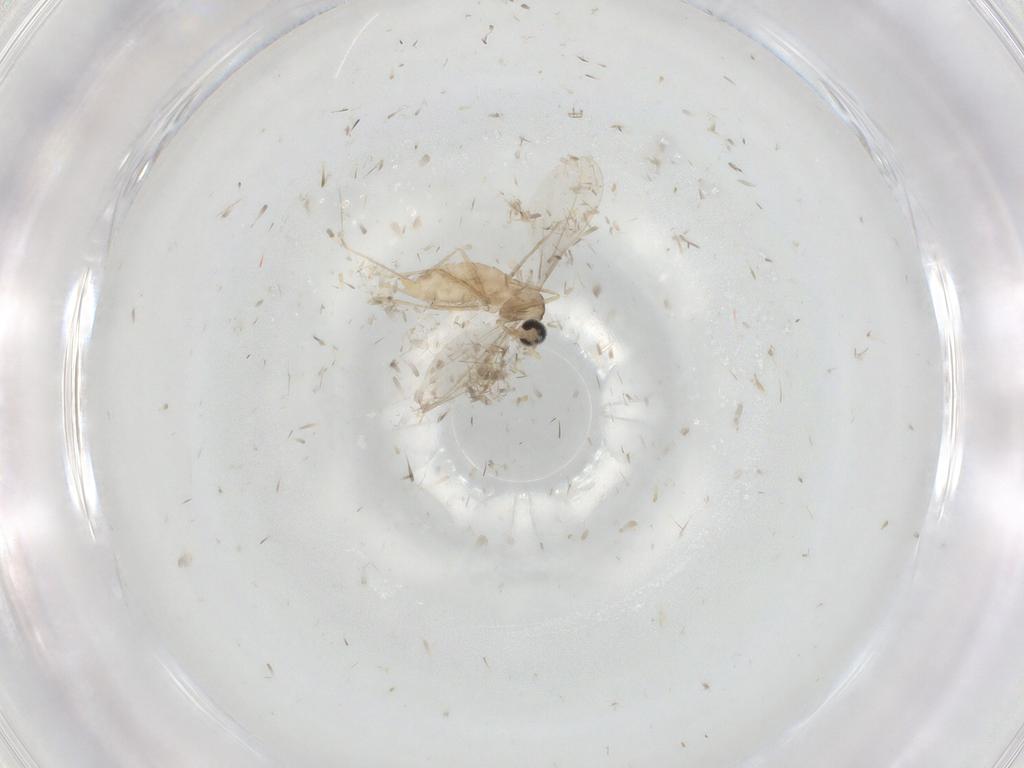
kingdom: Animalia
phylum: Arthropoda
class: Insecta
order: Diptera
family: Cecidomyiidae
